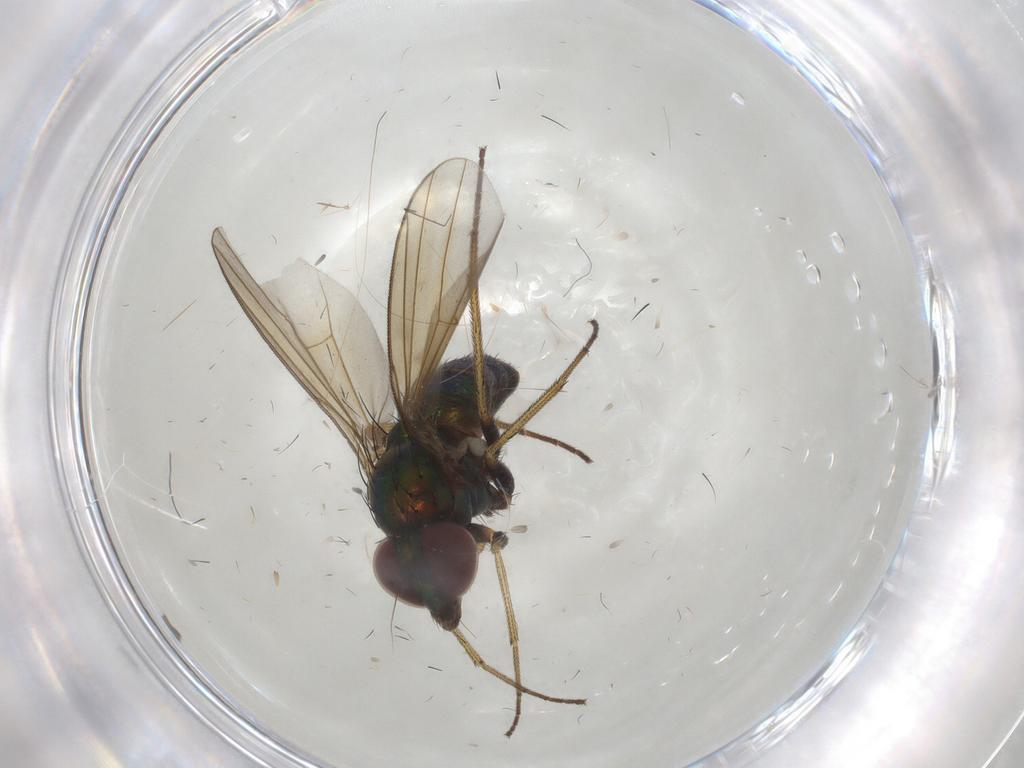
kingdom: Animalia
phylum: Arthropoda
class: Insecta
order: Diptera
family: Dolichopodidae
